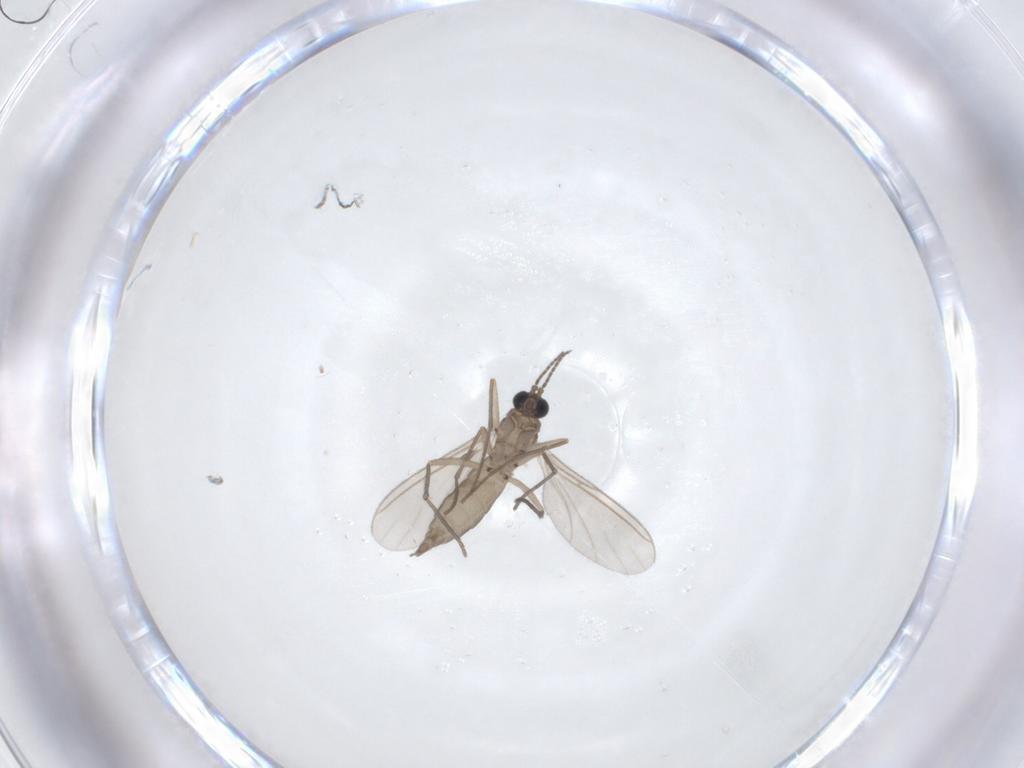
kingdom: Animalia
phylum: Arthropoda
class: Insecta
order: Diptera
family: Sciaridae
